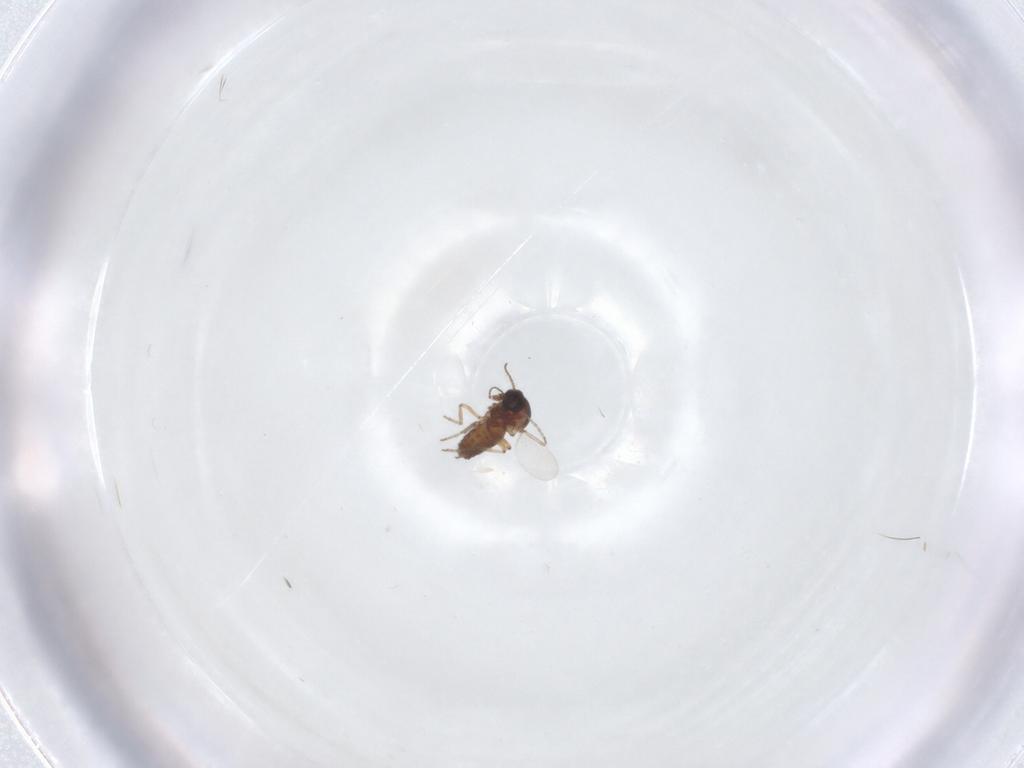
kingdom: Animalia
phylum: Arthropoda
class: Insecta
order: Diptera
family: Ceratopogonidae
